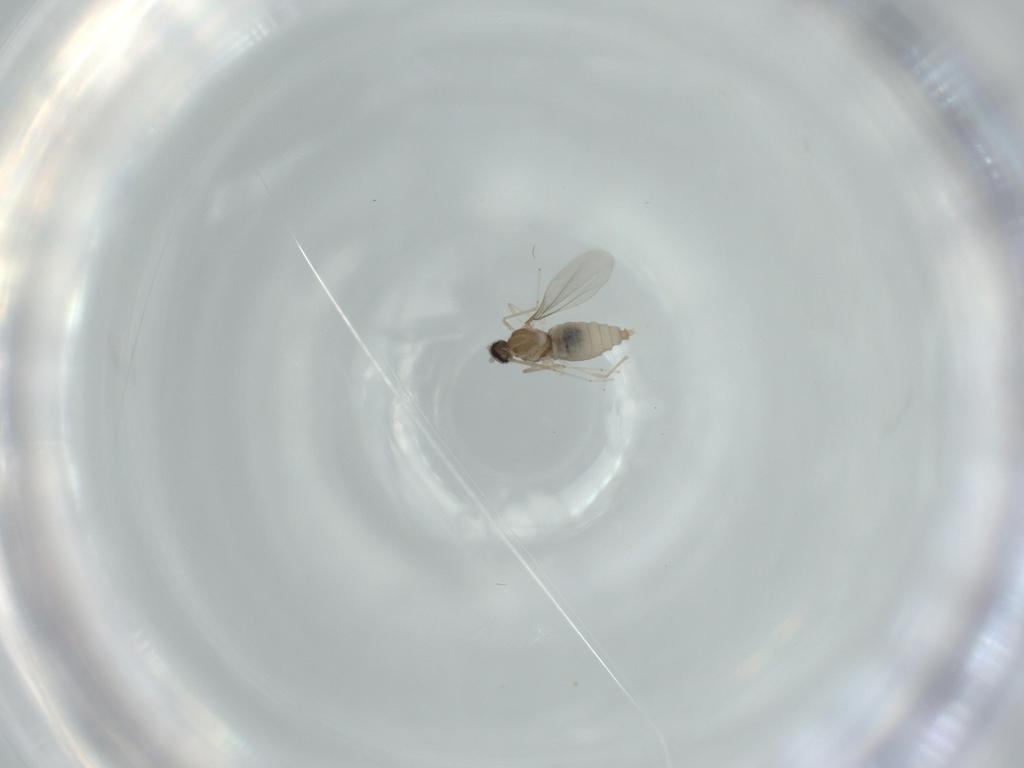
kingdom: Animalia
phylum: Arthropoda
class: Insecta
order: Diptera
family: Cecidomyiidae
